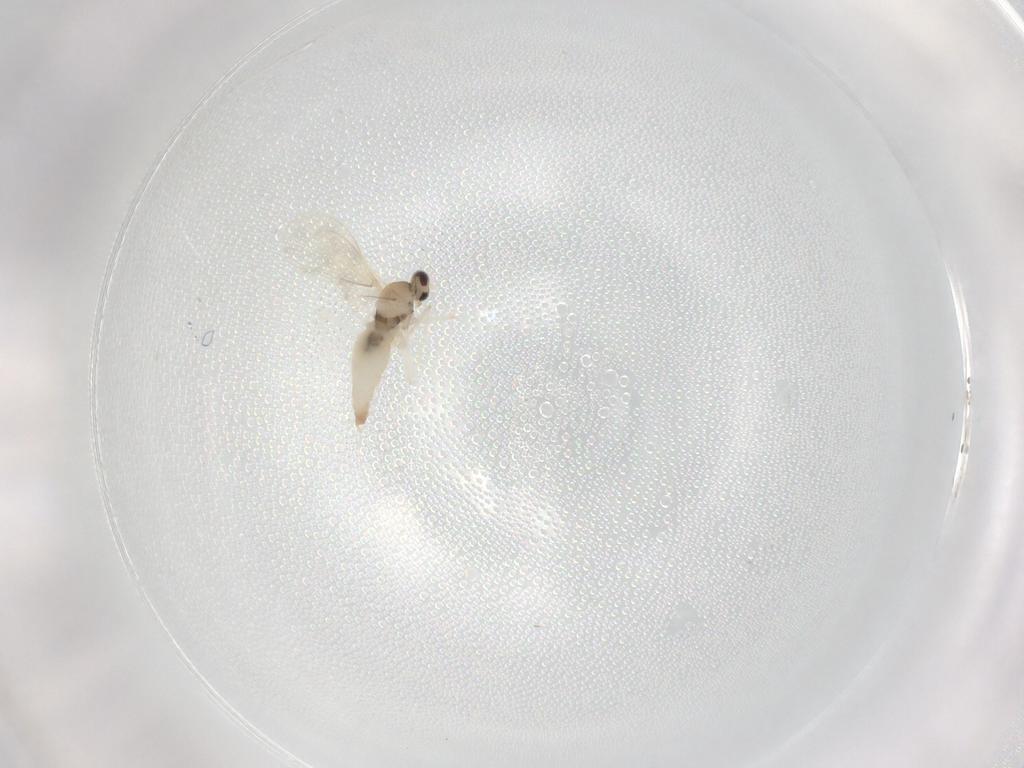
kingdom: Animalia
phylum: Arthropoda
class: Insecta
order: Diptera
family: Cecidomyiidae
